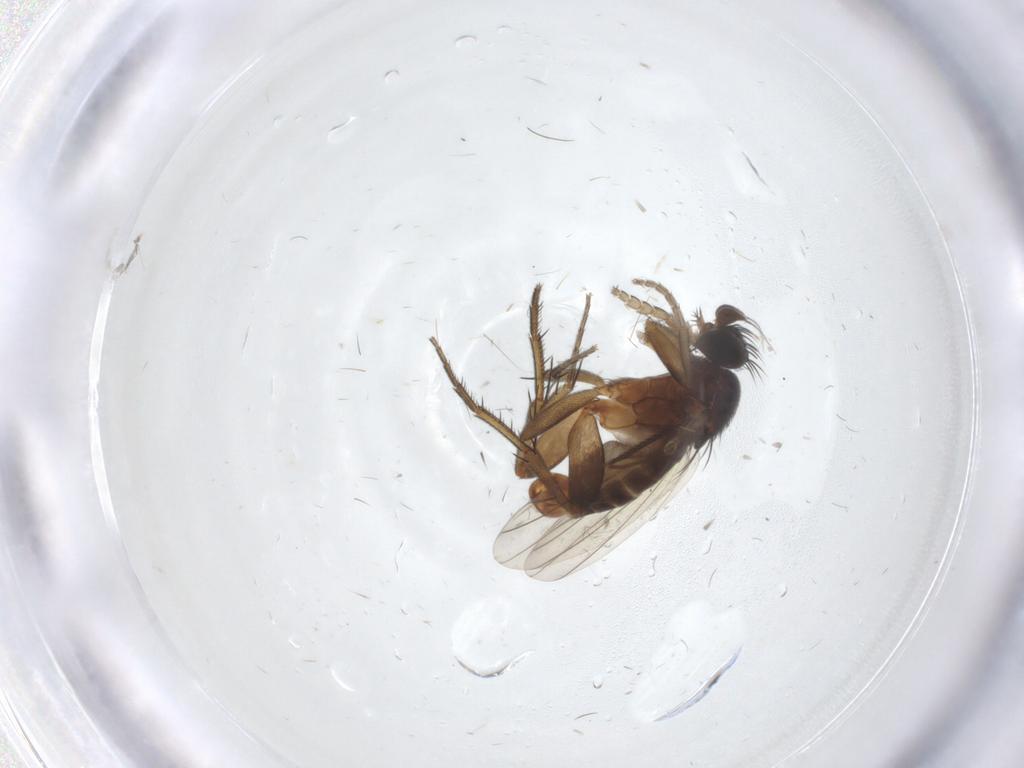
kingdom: Animalia
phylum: Arthropoda
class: Insecta
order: Diptera
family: Phoridae
